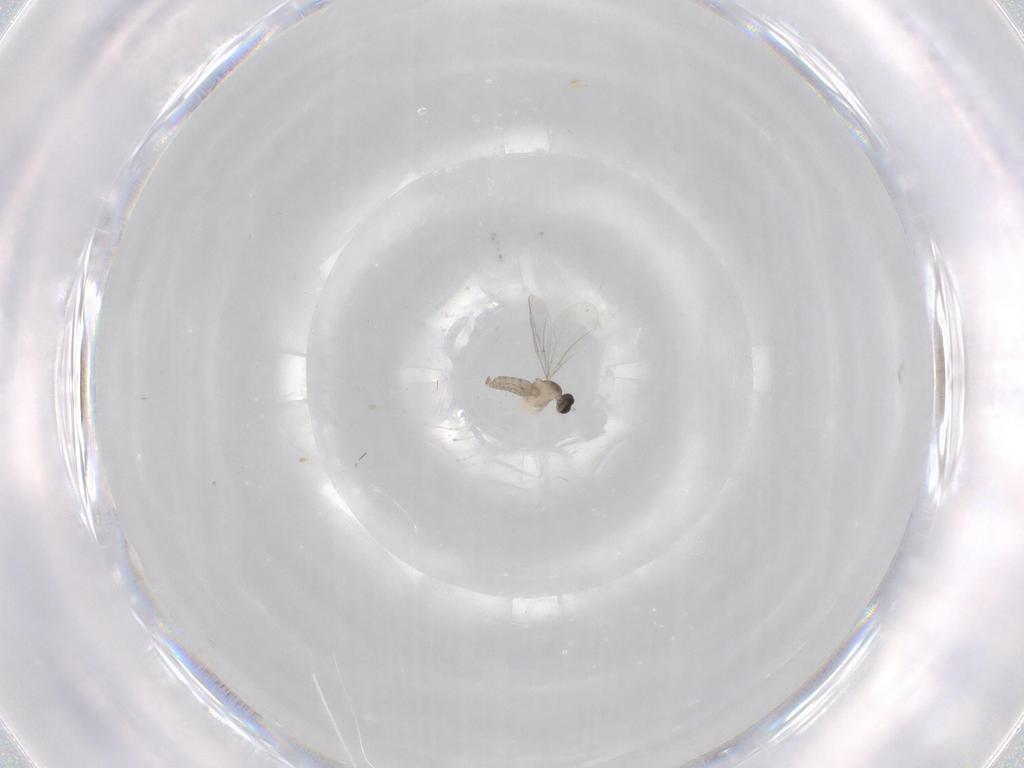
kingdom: Animalia
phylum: Arthropoda
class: Insecta
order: Diptera
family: Cecidomyiidae
